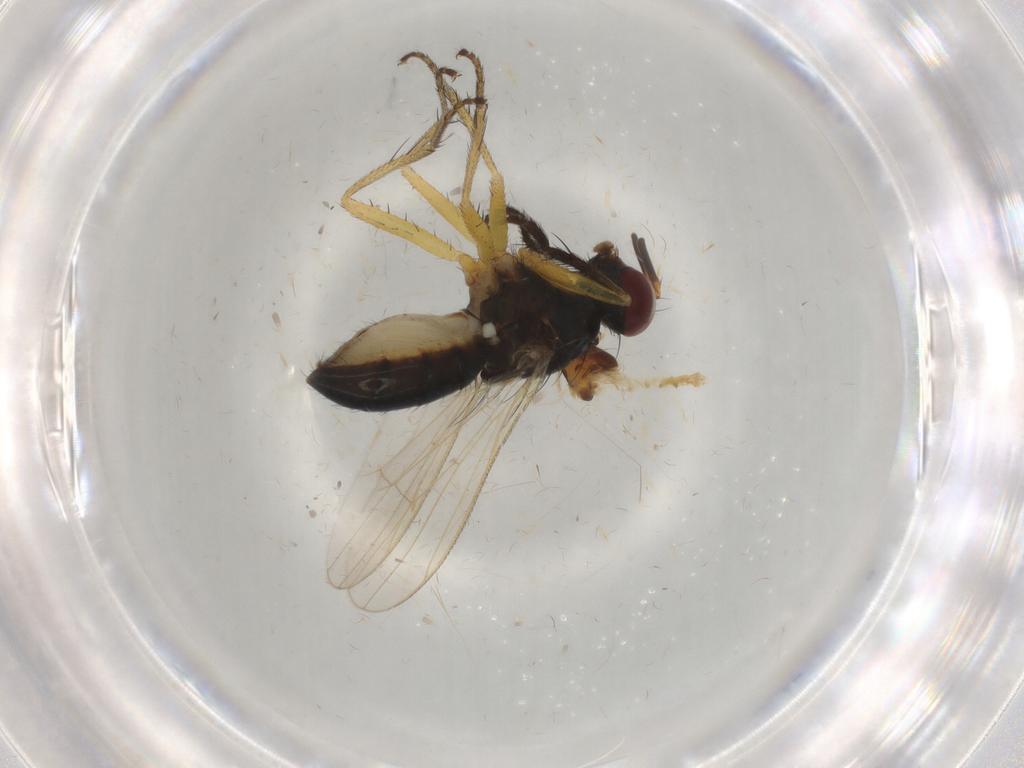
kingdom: Animalia
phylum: Arthropoda
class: Insecta
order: Diptera
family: Chironomidae
